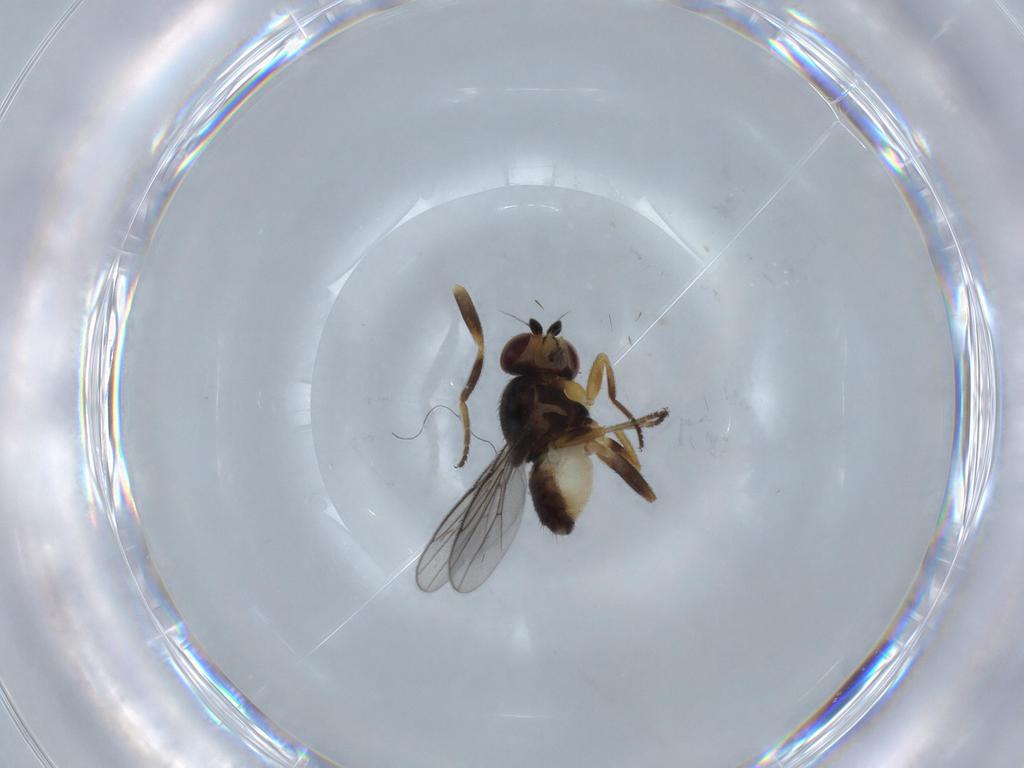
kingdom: Animalia
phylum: Arthropoda
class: Insecta
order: Diptera
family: Chloropidae
